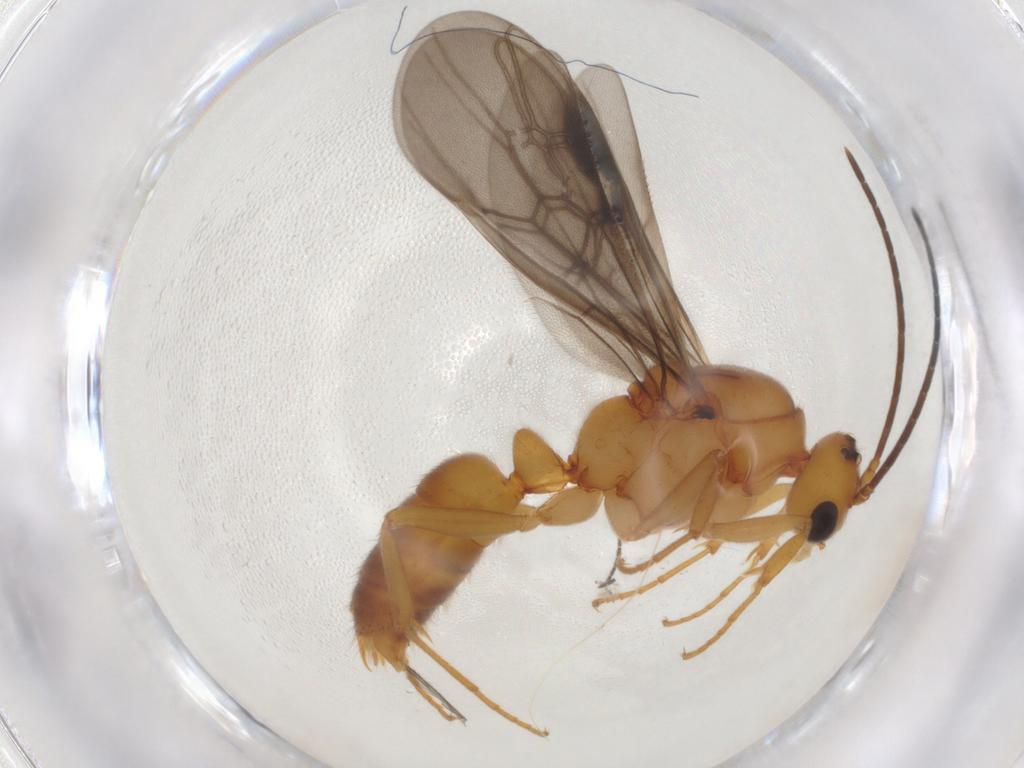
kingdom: Animalia
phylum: Arthropoda
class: Insecta
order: Hymenoptera
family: Formicidae
